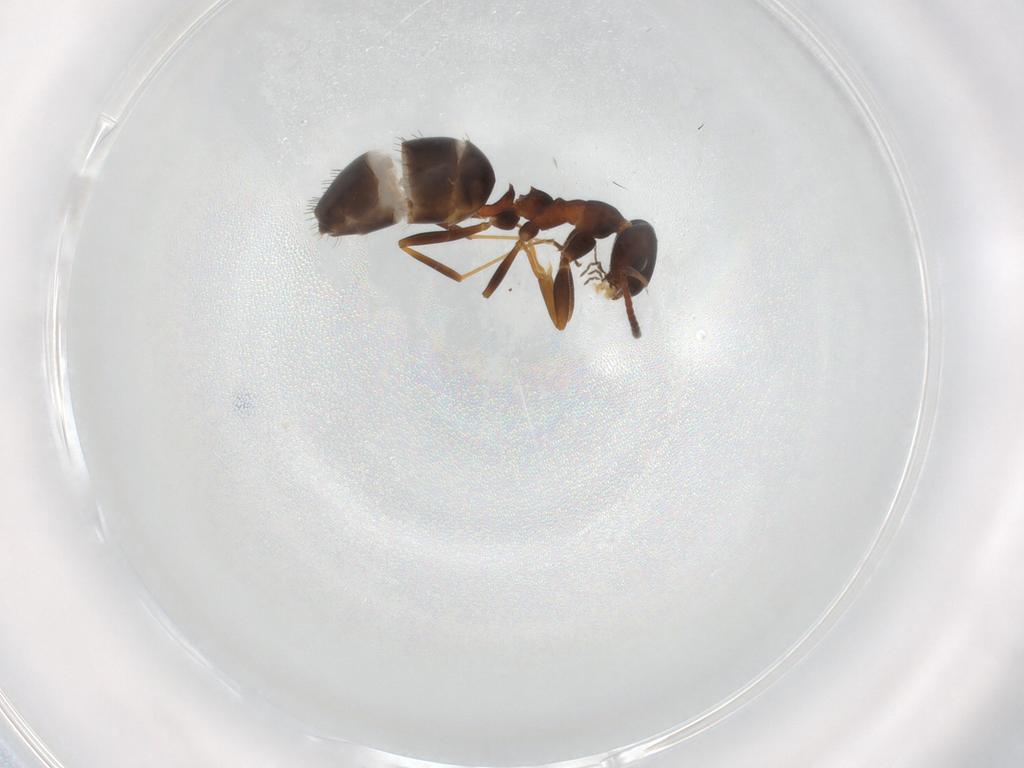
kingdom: Animalia
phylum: Arthropoda
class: Insecta
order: Hymenoptera
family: Formicidae
